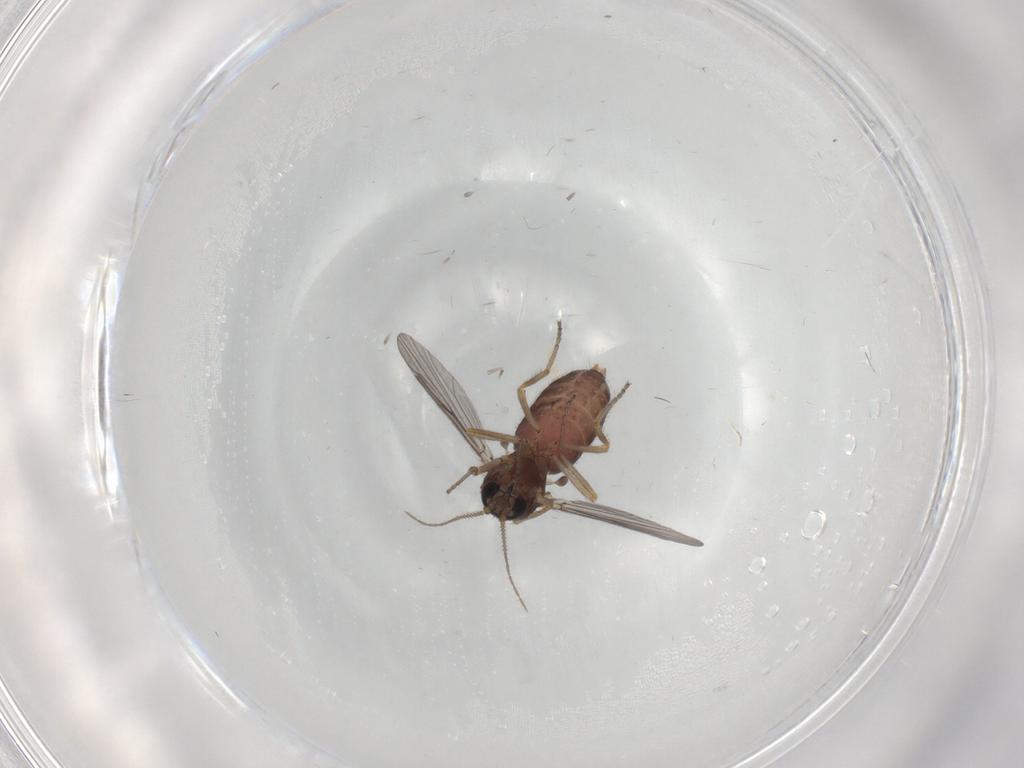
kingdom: Animalia
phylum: Arthropoda
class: Insecta
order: Diptera
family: Ceratopogonidae
